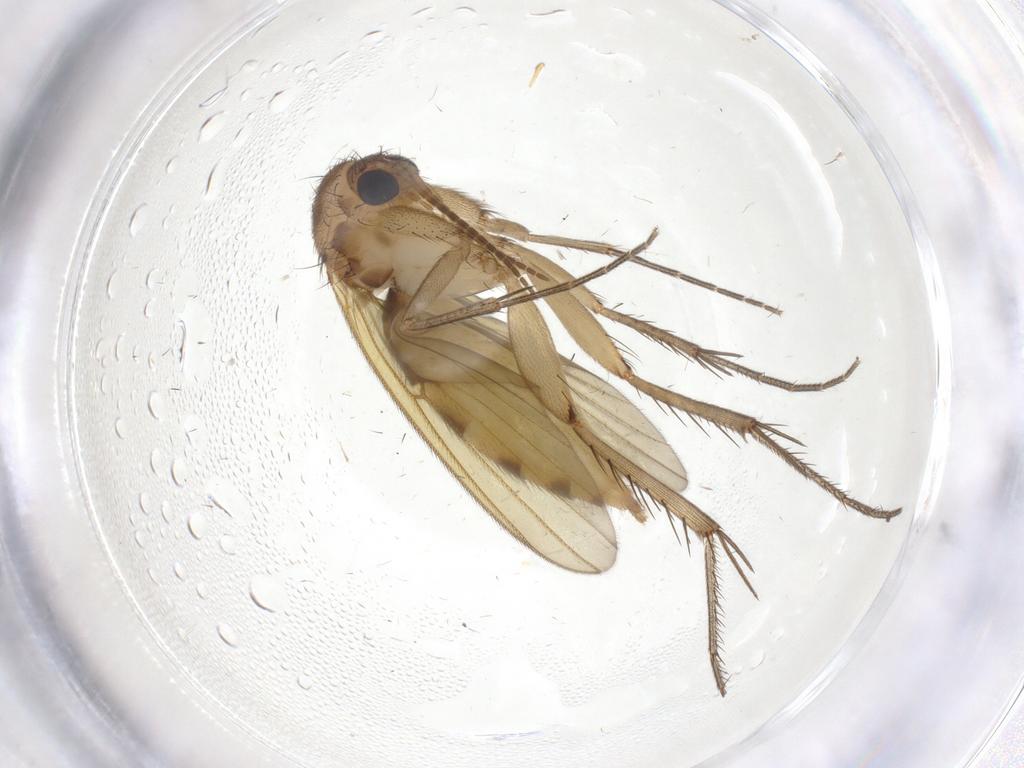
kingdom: Animalia
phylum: Arthropoda
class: Insecta
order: Diptera
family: Mycetophilidae
